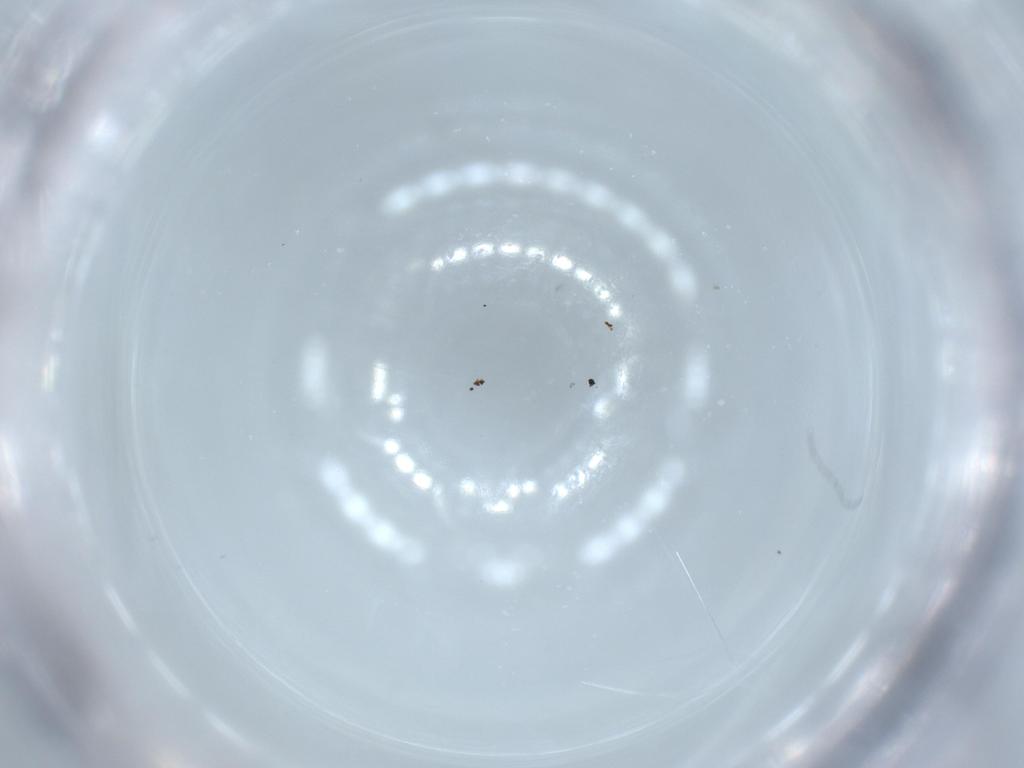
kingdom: Animalia
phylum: Arthropoda
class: Insecta
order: Diptera
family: Psychodidae
